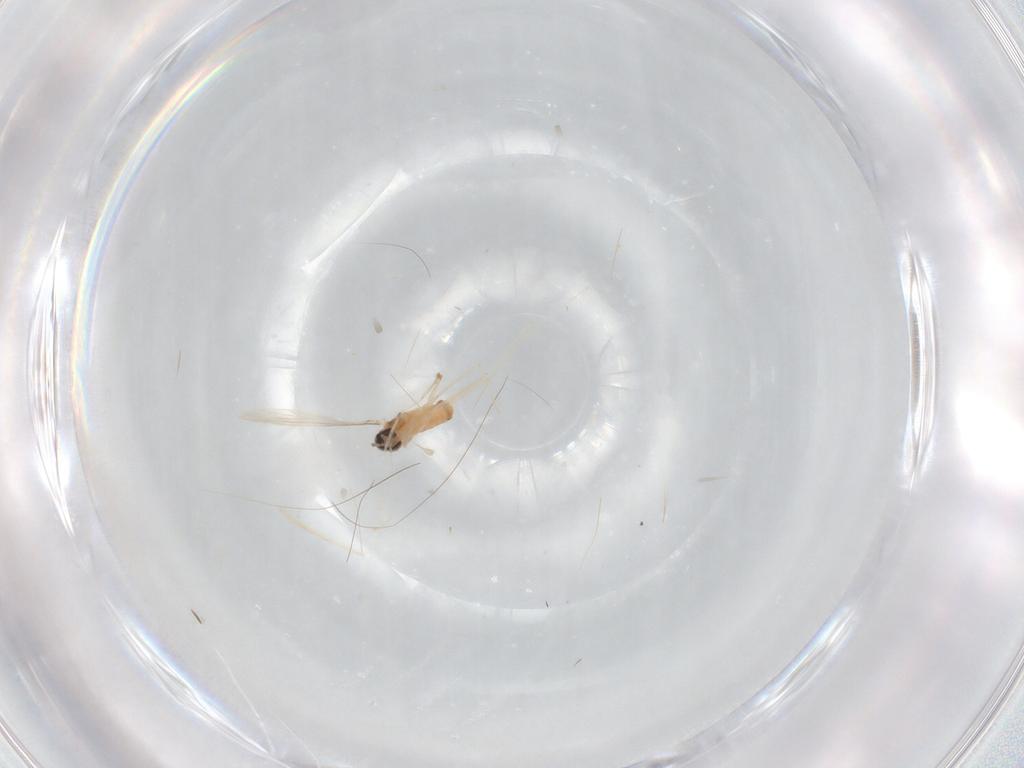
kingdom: Animalia
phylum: Arthropoda
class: Insecta
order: Diptera
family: Cecidomyiidae
